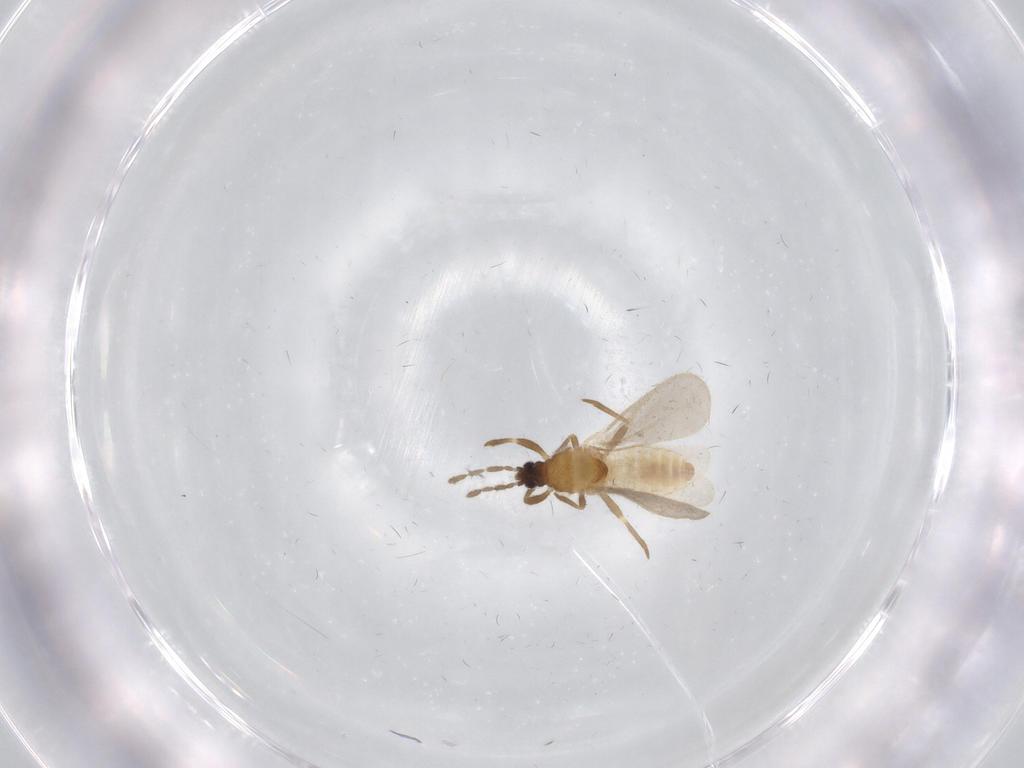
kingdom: Animalia
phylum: Arthropoda
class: Insecta
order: Hemiptera
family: Enicocephalidae
